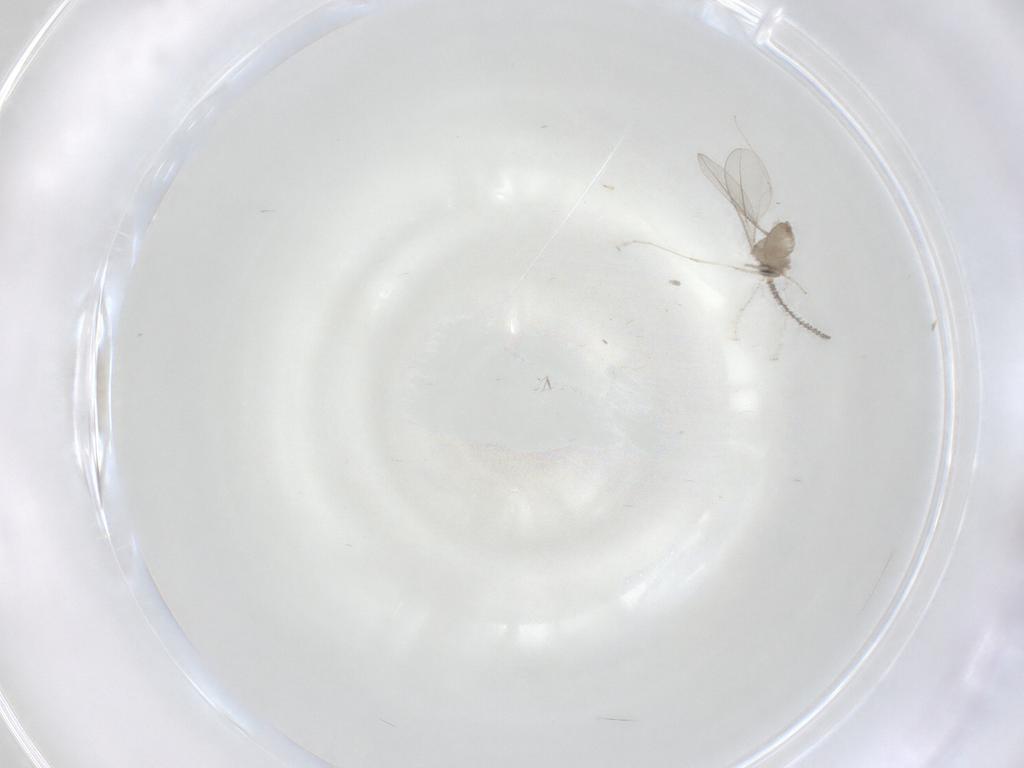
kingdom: Animalia
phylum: Arthropoda
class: Insecta
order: Diptera
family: Cecidomyiidae
